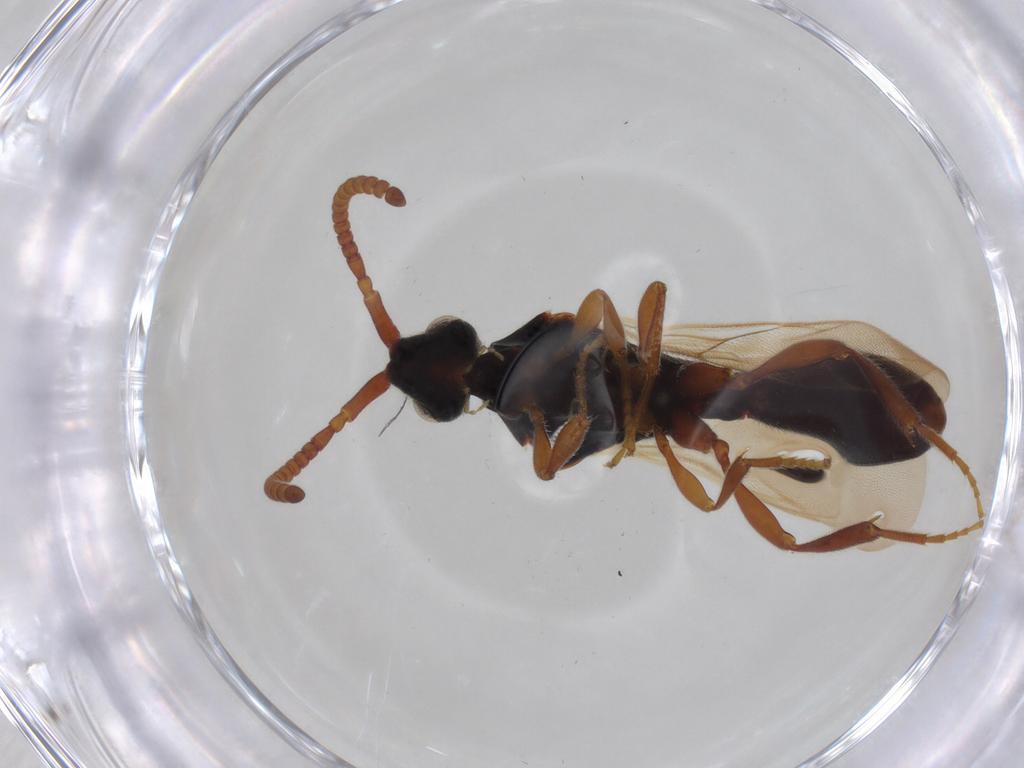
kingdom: Animalia
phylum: Arthropoda
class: Insecta
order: Hymenoptera
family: Diapriidae
